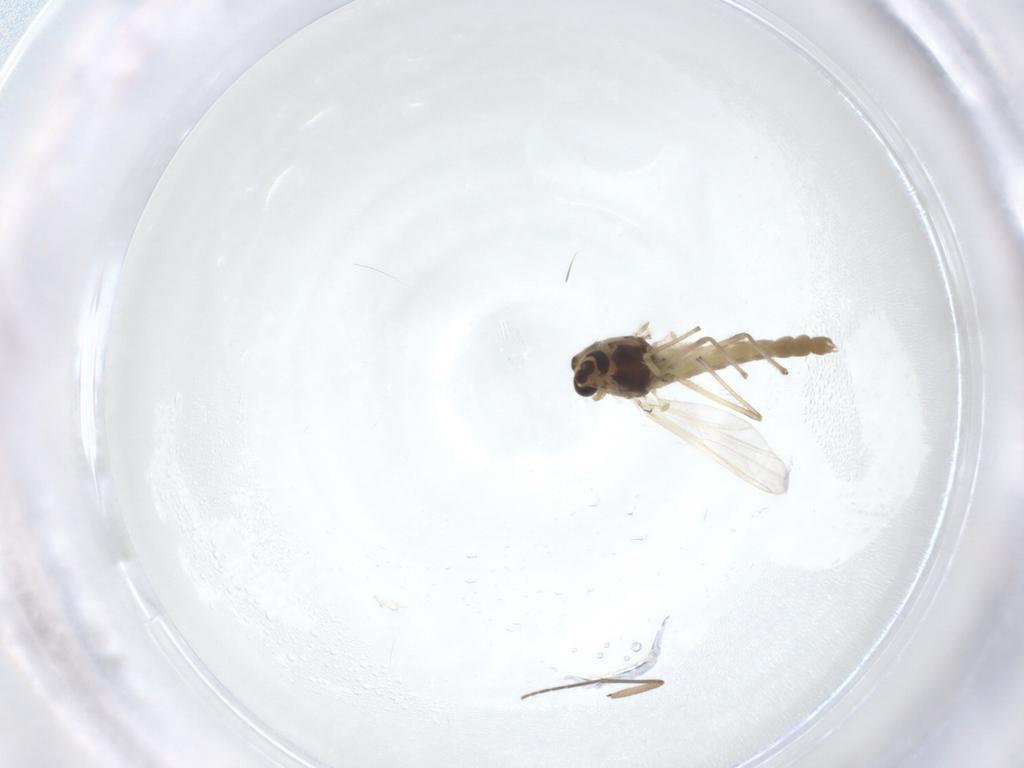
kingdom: Animalia
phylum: Arthropoda
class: Insecta
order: Diptera
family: Chironomidae
